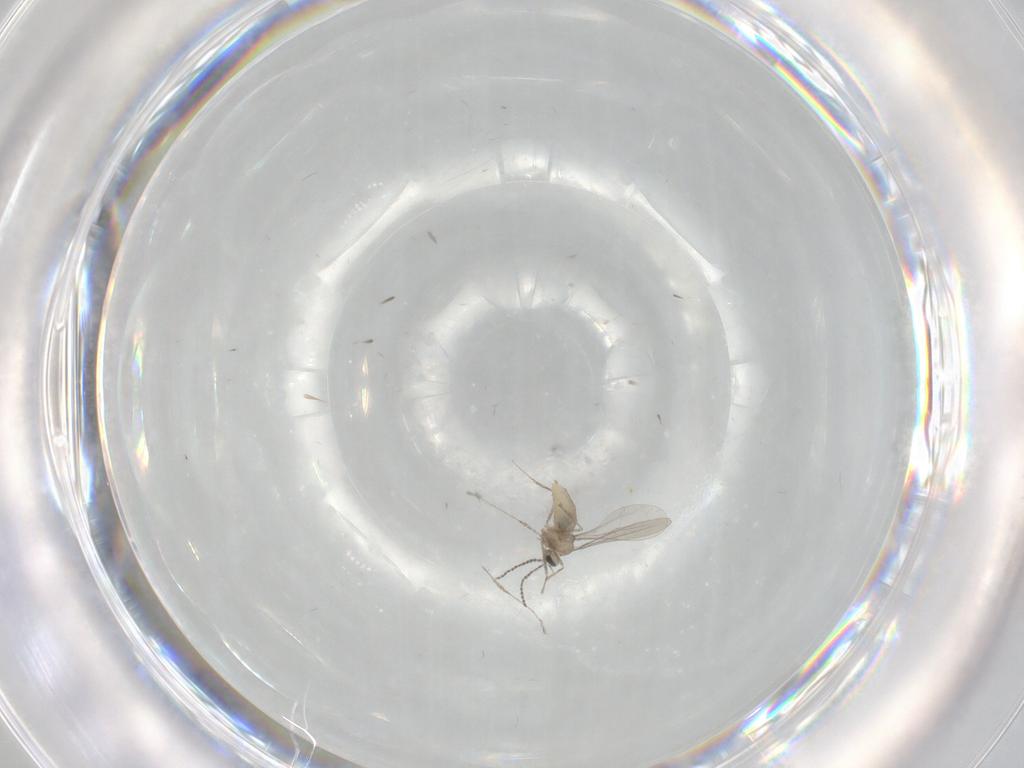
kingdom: Animalia
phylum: Arthropoda
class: Insecta
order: Diptera
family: Cecidomyiidae
